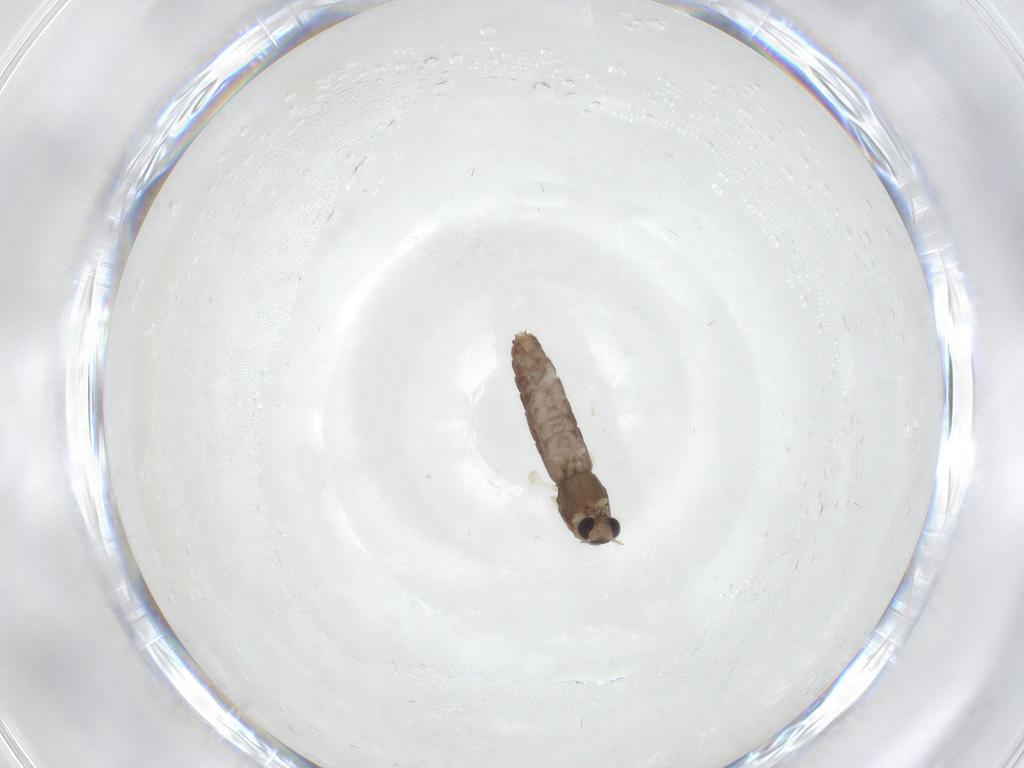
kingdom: Animalia
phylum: Arthropoda
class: Insecta
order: Diptera
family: Chironomidae
